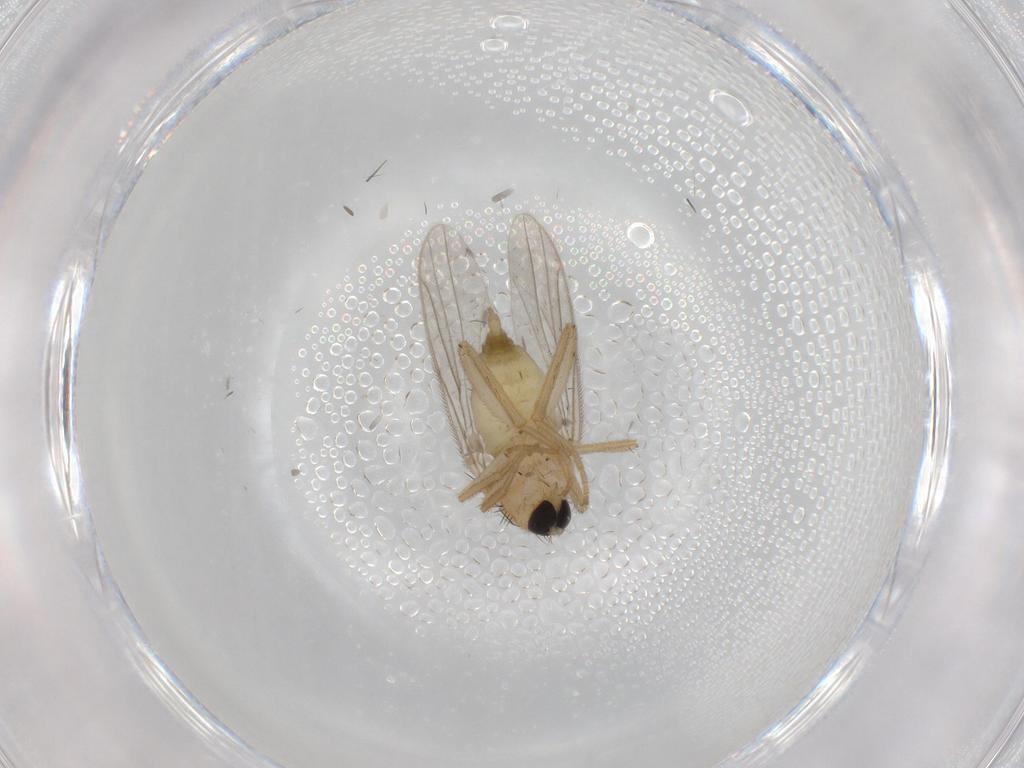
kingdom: Animalia
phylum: Arthropoda
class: Insecta
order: Diptera
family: Hybotidae
